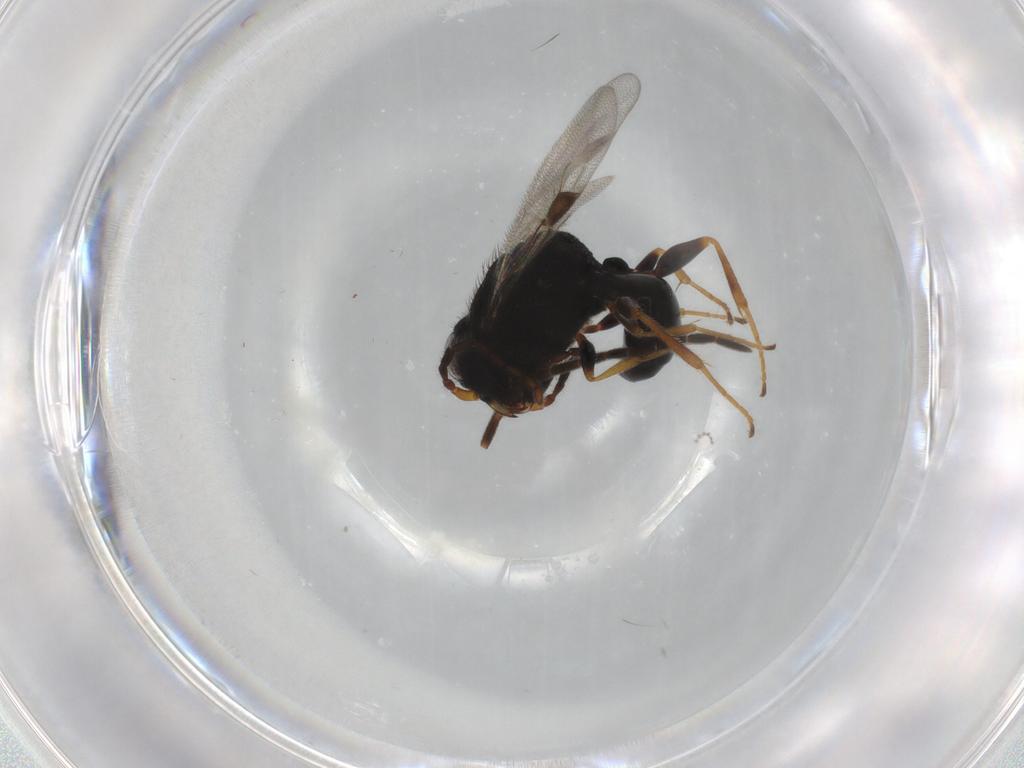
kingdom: Animalia
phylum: Arthropoda
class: Insecta
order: Hymenoptera
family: Dryinidae
